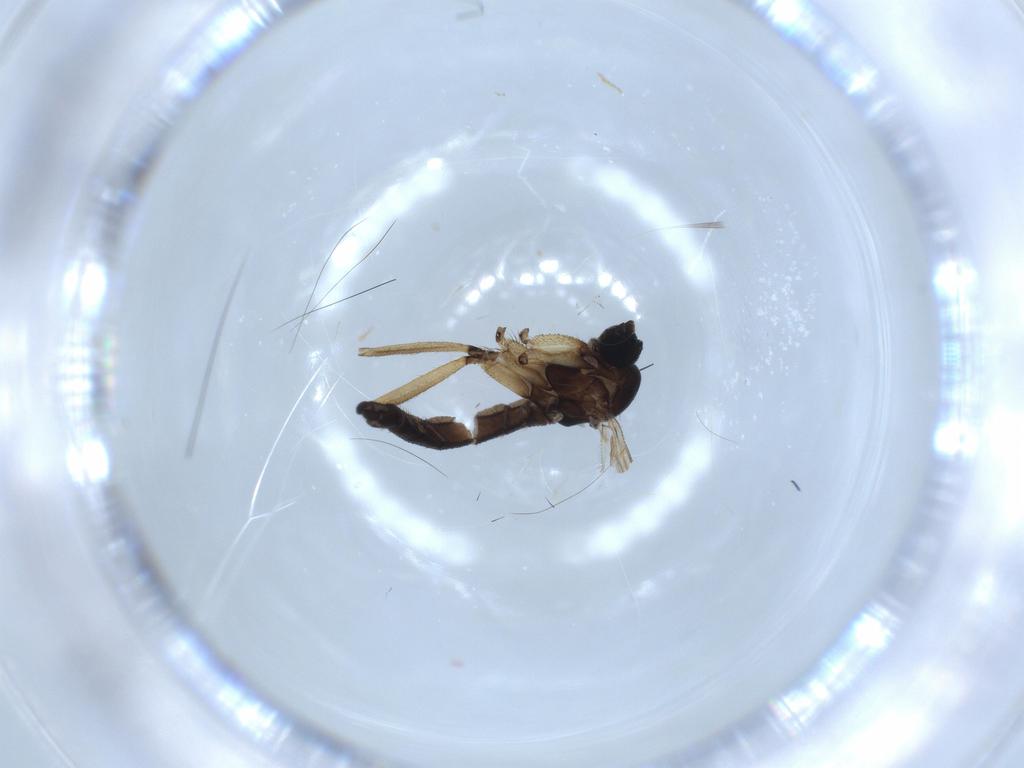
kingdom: Animalia
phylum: Arthropoda
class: Insecta
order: Diptera
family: Sciaridae
